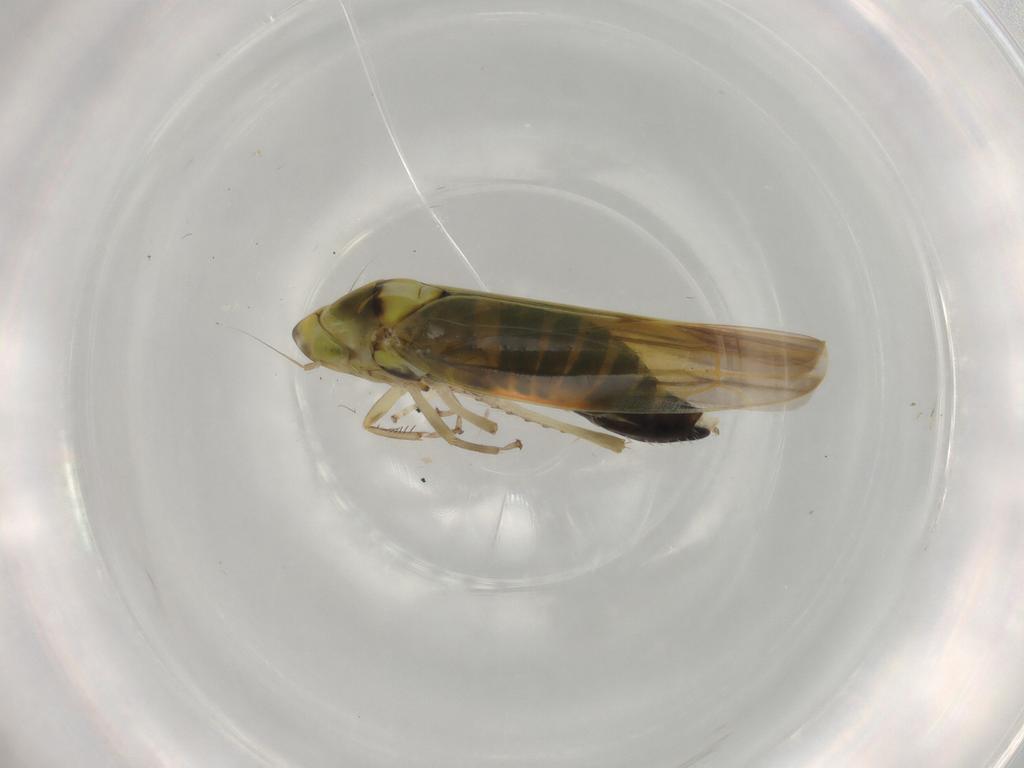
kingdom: Animalia
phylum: Arthropoda
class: Insecta
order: Hemiptera
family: Cicadellidae
